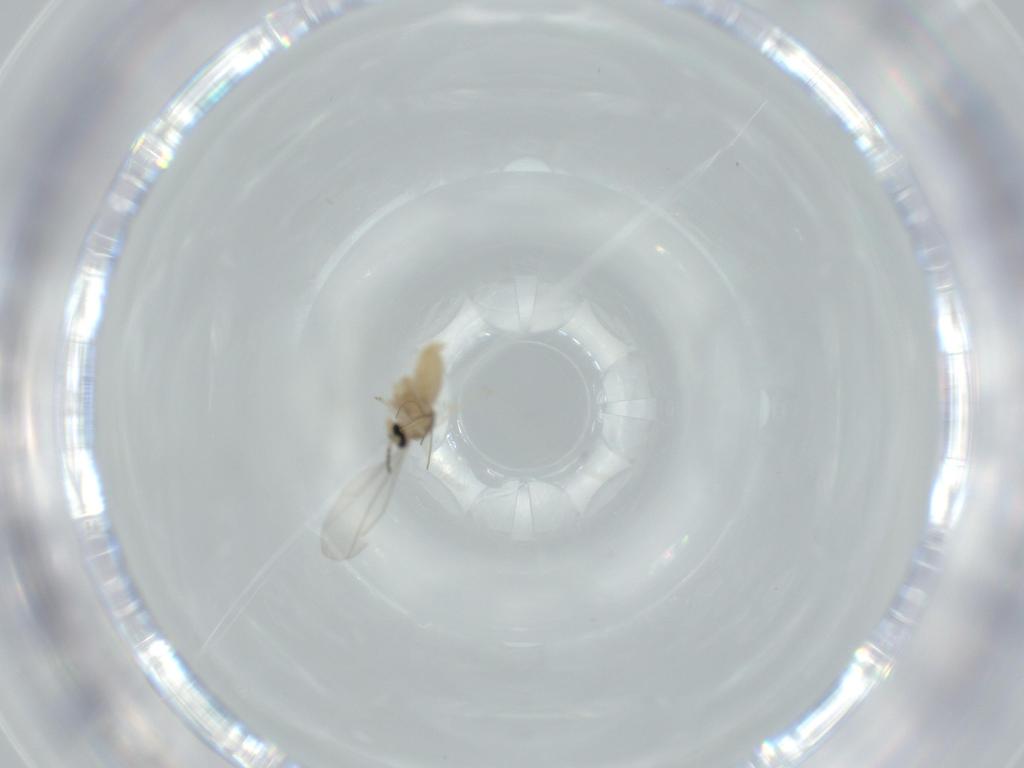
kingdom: Animalia
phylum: Arthropoda
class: Insecta
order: Diptera
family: Cecidomyiidae
